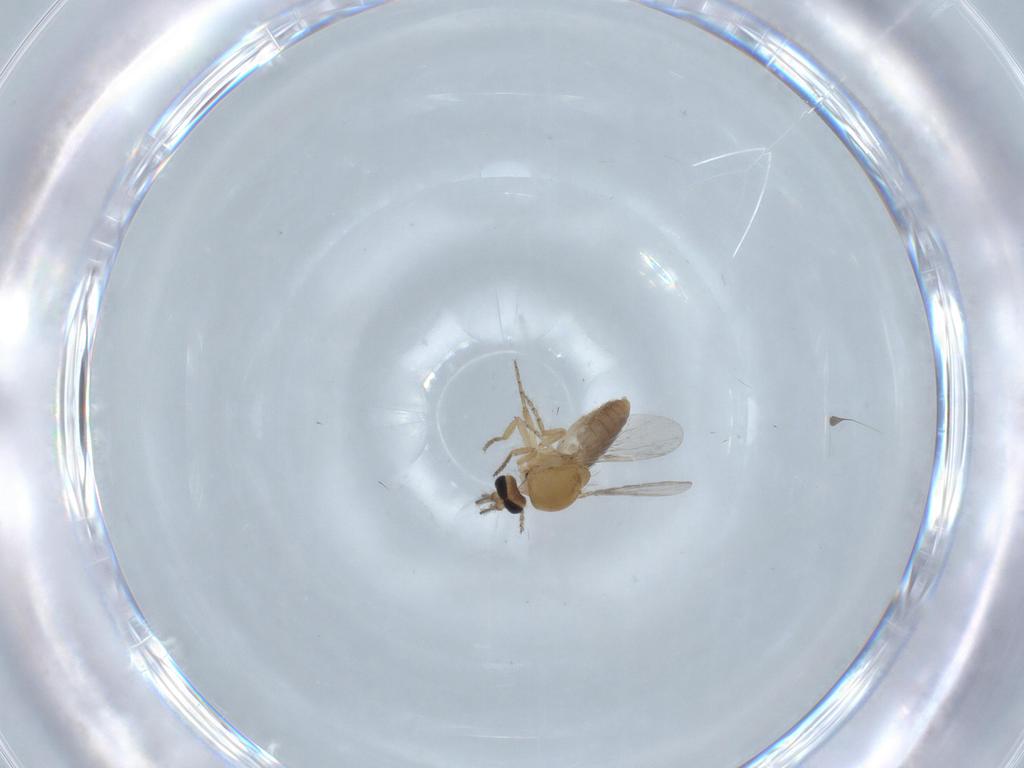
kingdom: Animalia
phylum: Arthropoda
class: Insecta
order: Diptera
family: Ceratopogonidae
